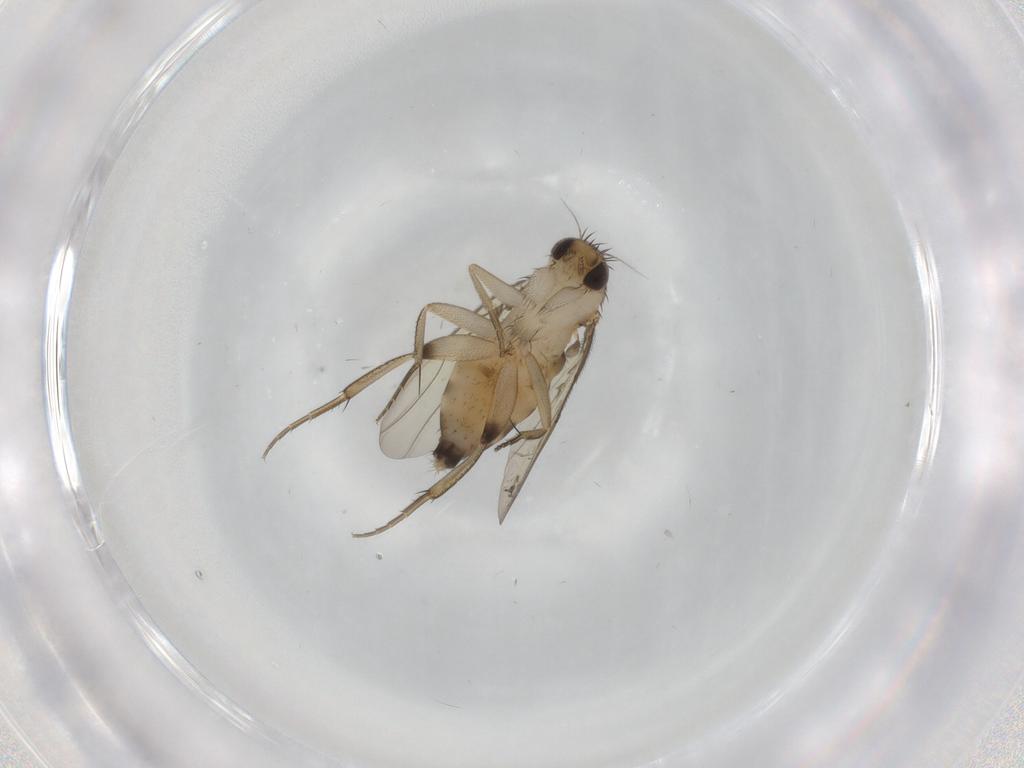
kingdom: Animalia
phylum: Arthropoda
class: Insecta
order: Diptera
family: Phoridae
